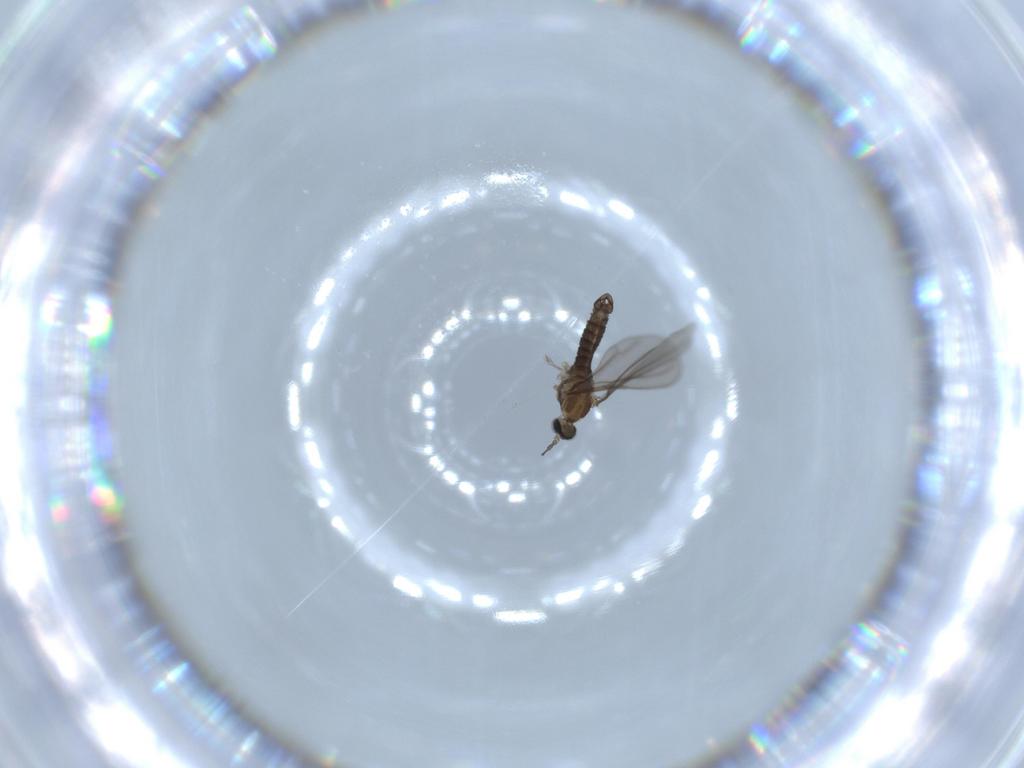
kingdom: Animalia
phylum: Arthropoda
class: Insecta
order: Diptera
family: Cecidomyiidae
